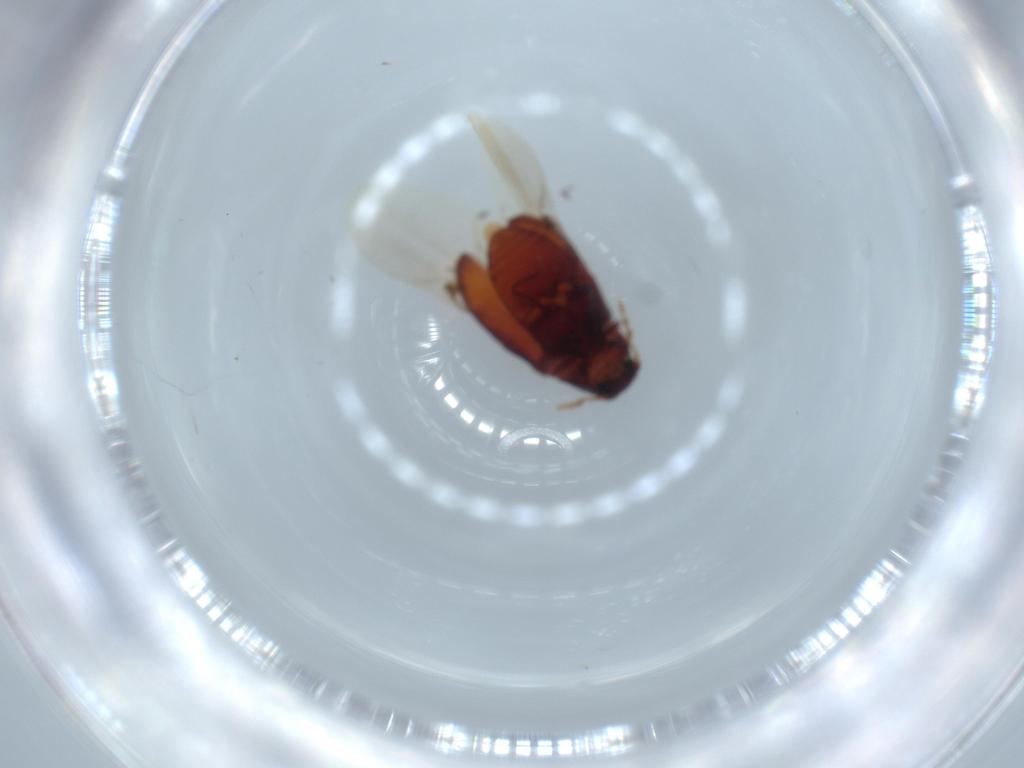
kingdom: Animalia
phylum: Arthropoda
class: Insecta
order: Coleoptera
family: Ptinidae
